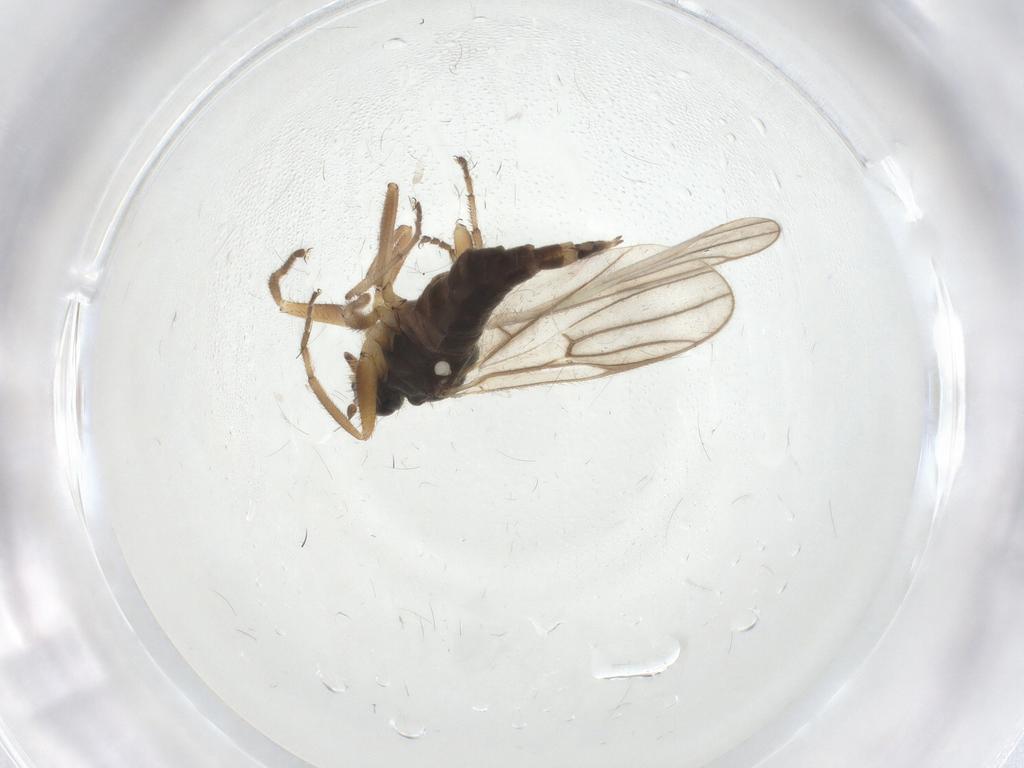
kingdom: Animalia
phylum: Arthropoda
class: Insecta
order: Diptera
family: Hybotidae
